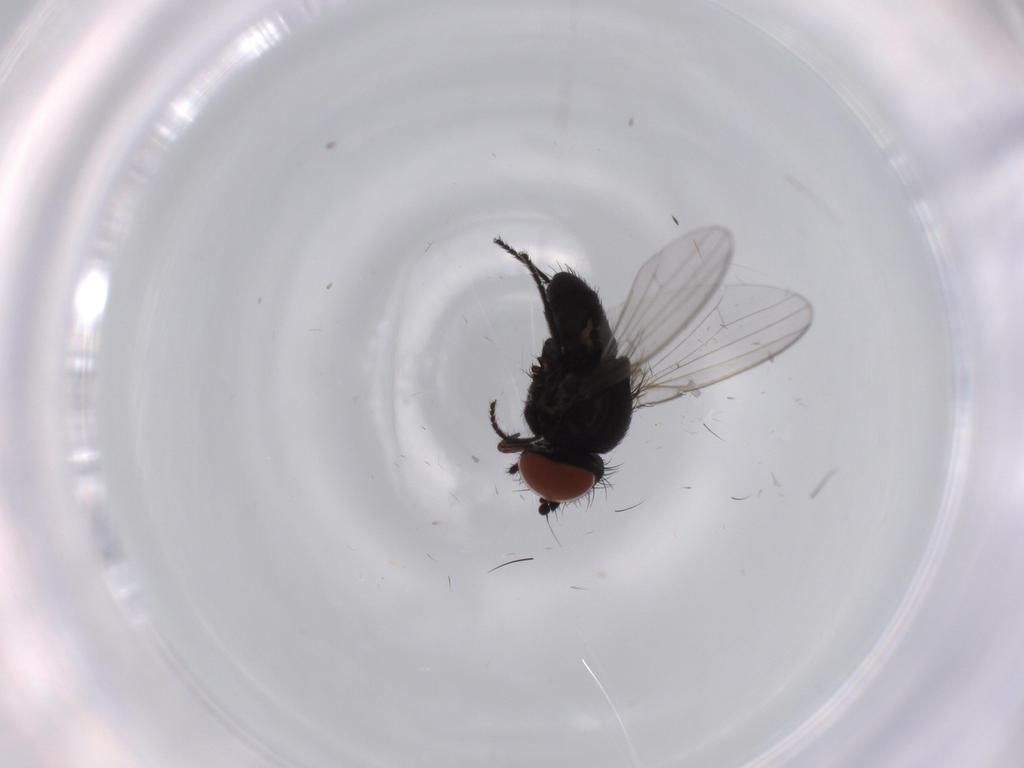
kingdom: Animalia
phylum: Arthropoda
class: Insecta
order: Diptera
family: Milichiidae
